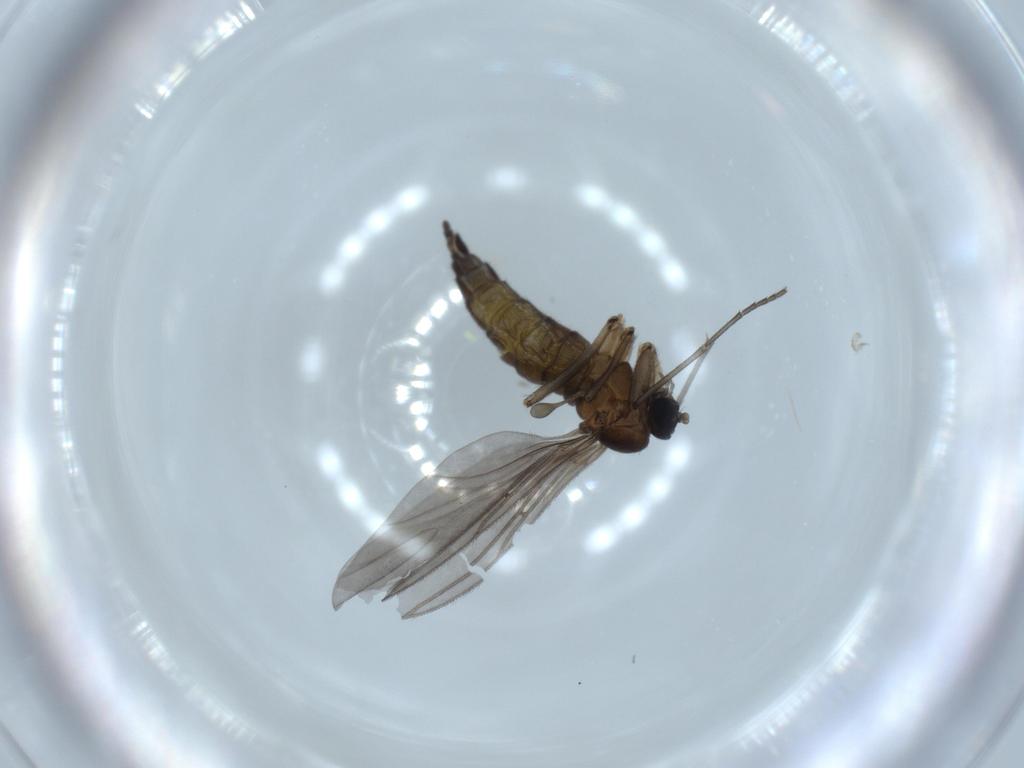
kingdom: Animalia
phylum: Arthropoda
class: Insecta
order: Diptera
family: Sciaridae
